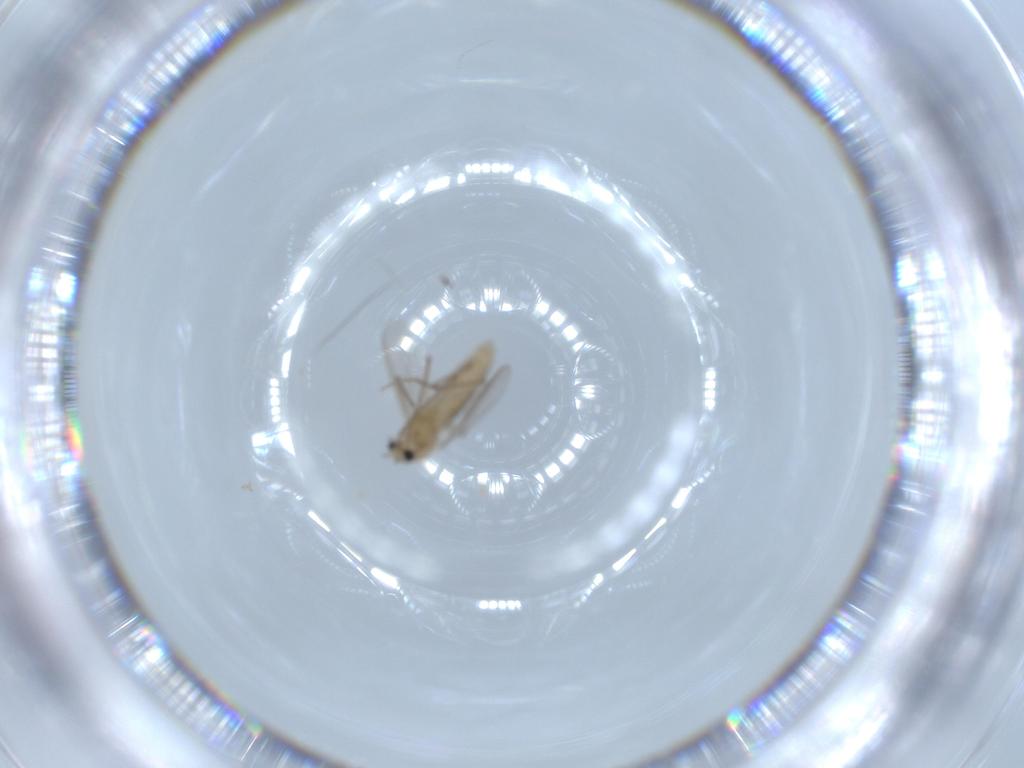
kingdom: Animalia
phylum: Arthropoda
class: Insecta
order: Diptera
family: Chironomidae
